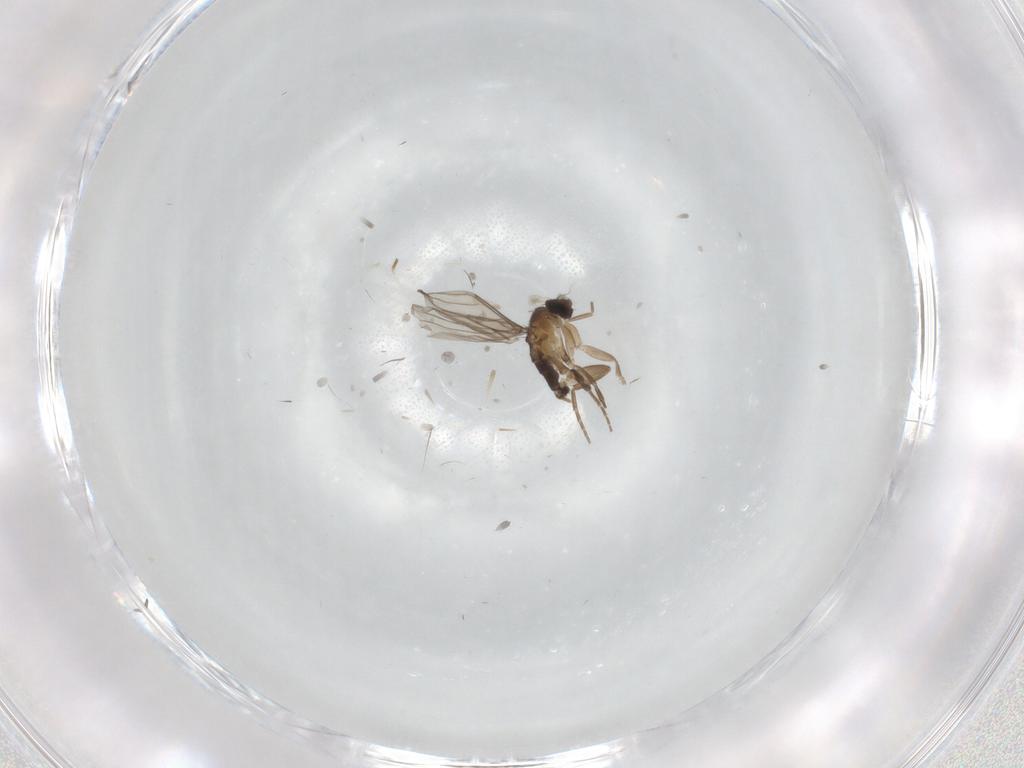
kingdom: Animalia
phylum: Arthropoda
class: Insecta
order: Diptera
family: Phoridae
